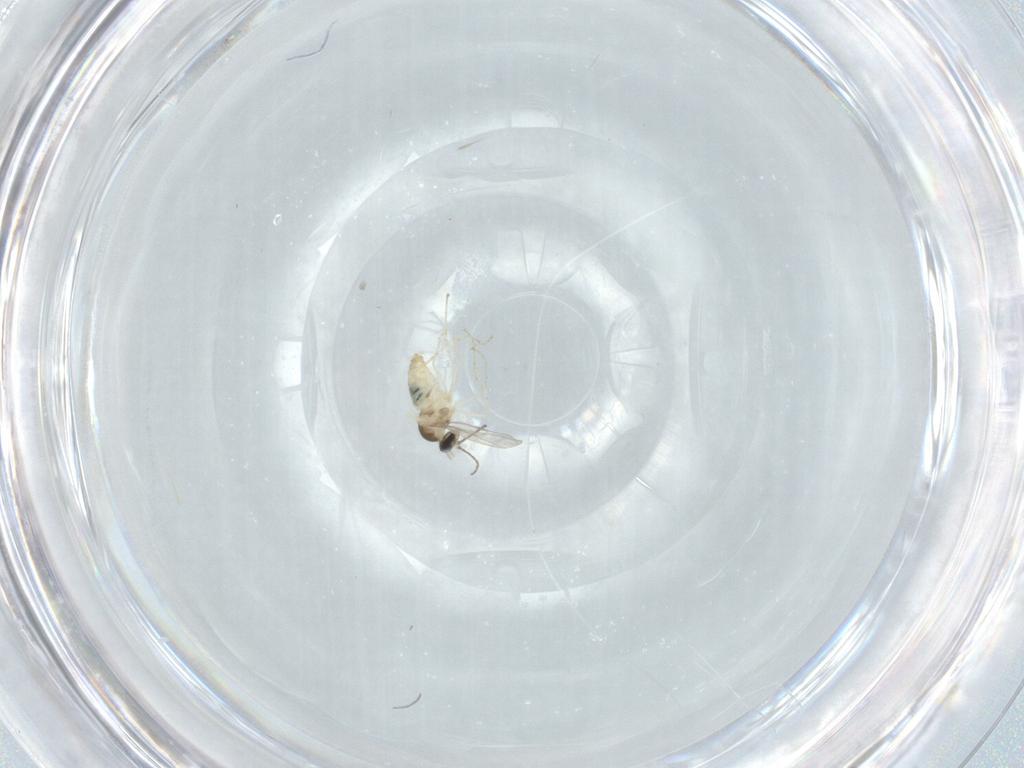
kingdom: Animalia
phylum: Arthropoda
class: Insecta
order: Diptera
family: Cecidomyiidae
